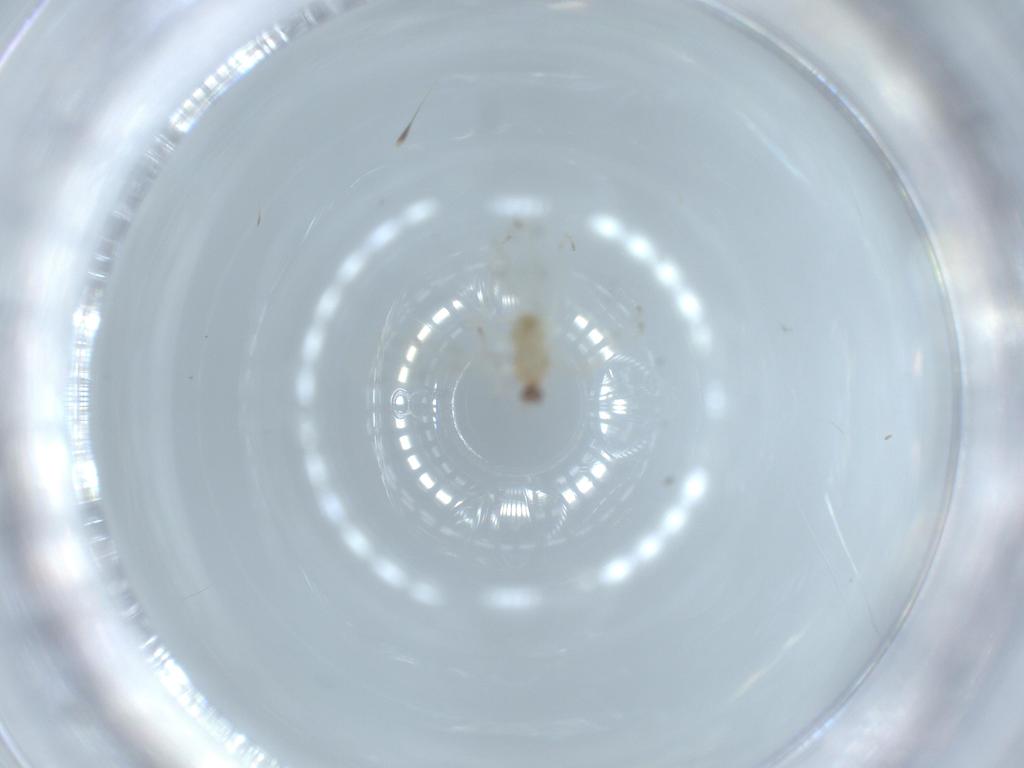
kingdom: Animalia
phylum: Arthropoda
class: Insecta
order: Diptera
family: Cecidomyiidae
